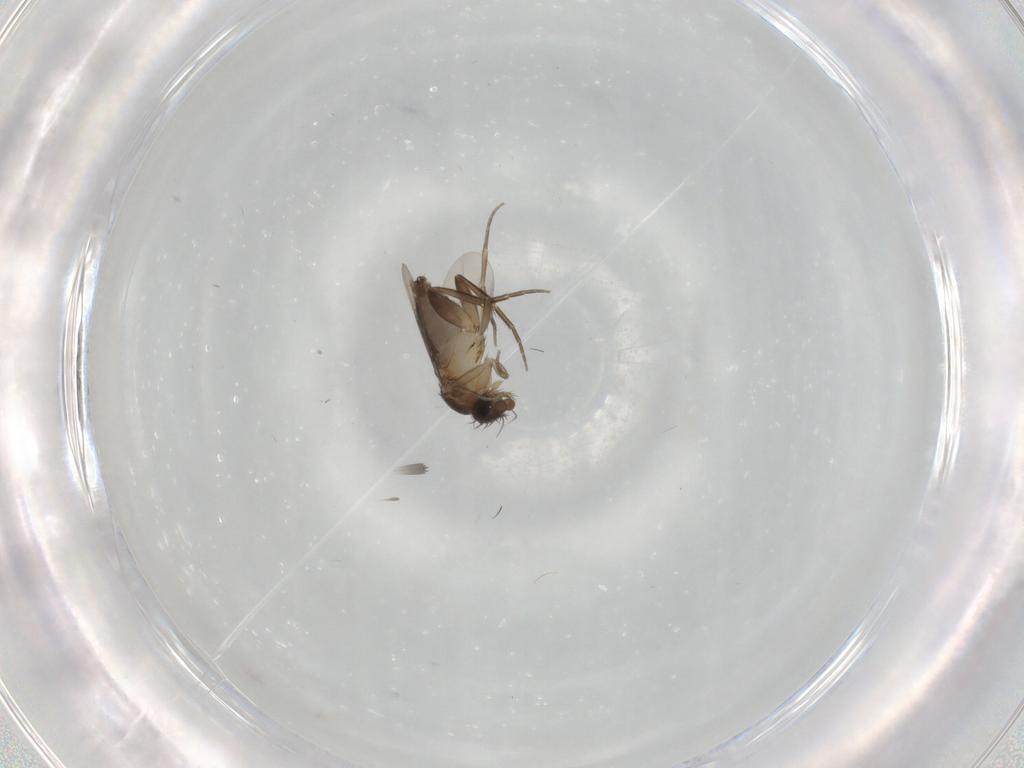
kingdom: Animalia
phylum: Arthropoda
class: Insecta
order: Diptera
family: Phoridae
